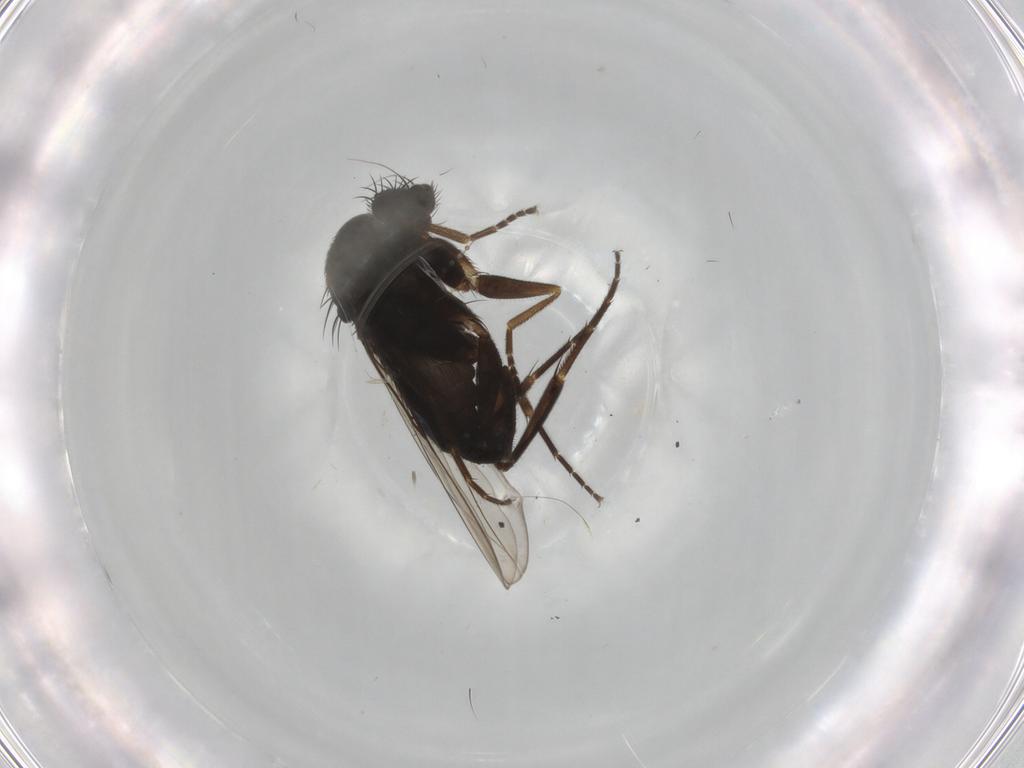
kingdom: Animalia
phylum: Arthropoda
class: Insecta
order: Diptera
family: Phoridae
